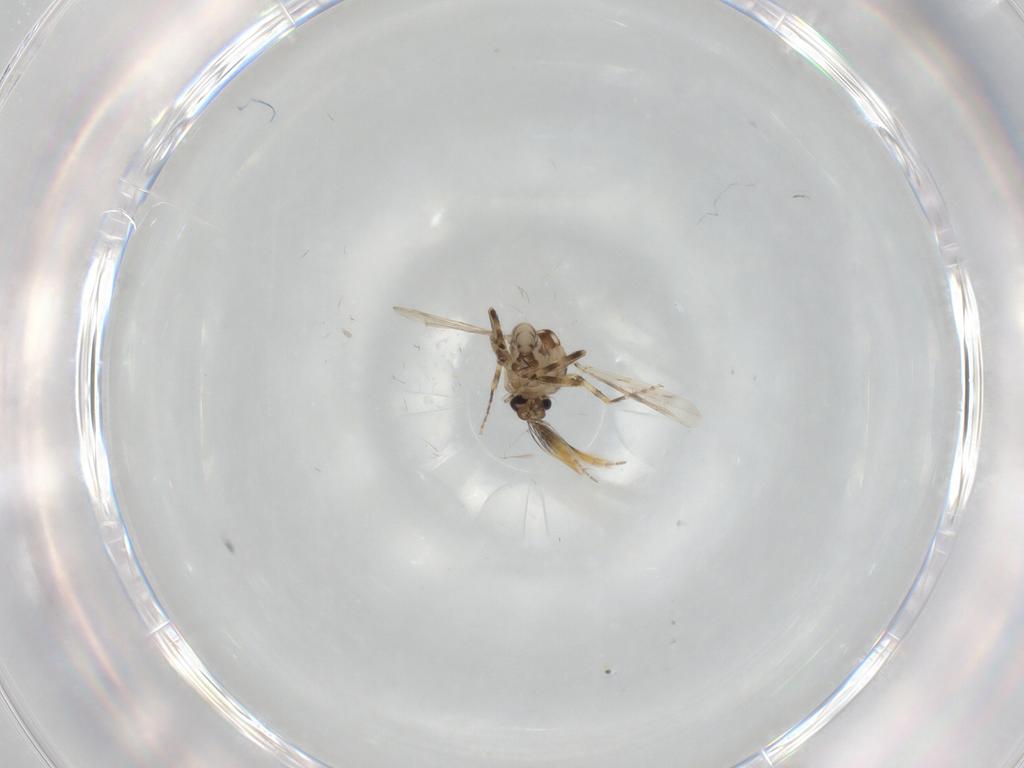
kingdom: Animalia
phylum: Arthropoda
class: Insecta
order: Diptera
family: Ceratopogonidae
